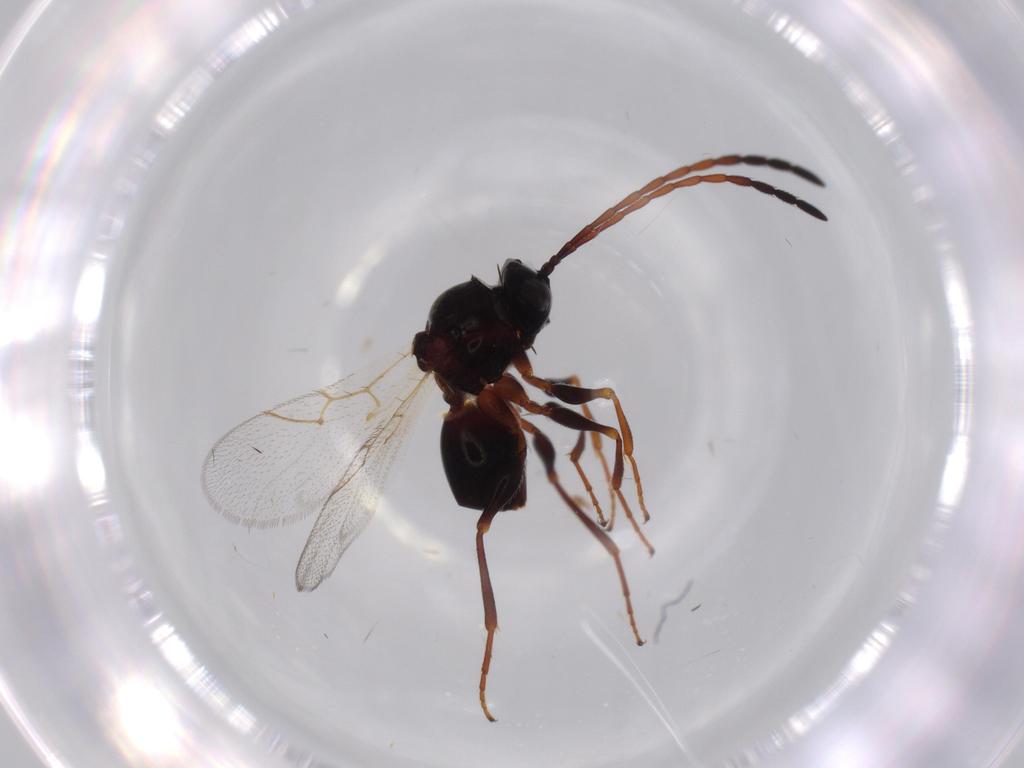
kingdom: Animalia
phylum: Arthropoda
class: Insecta
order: Hymenoptera
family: Figitidae
